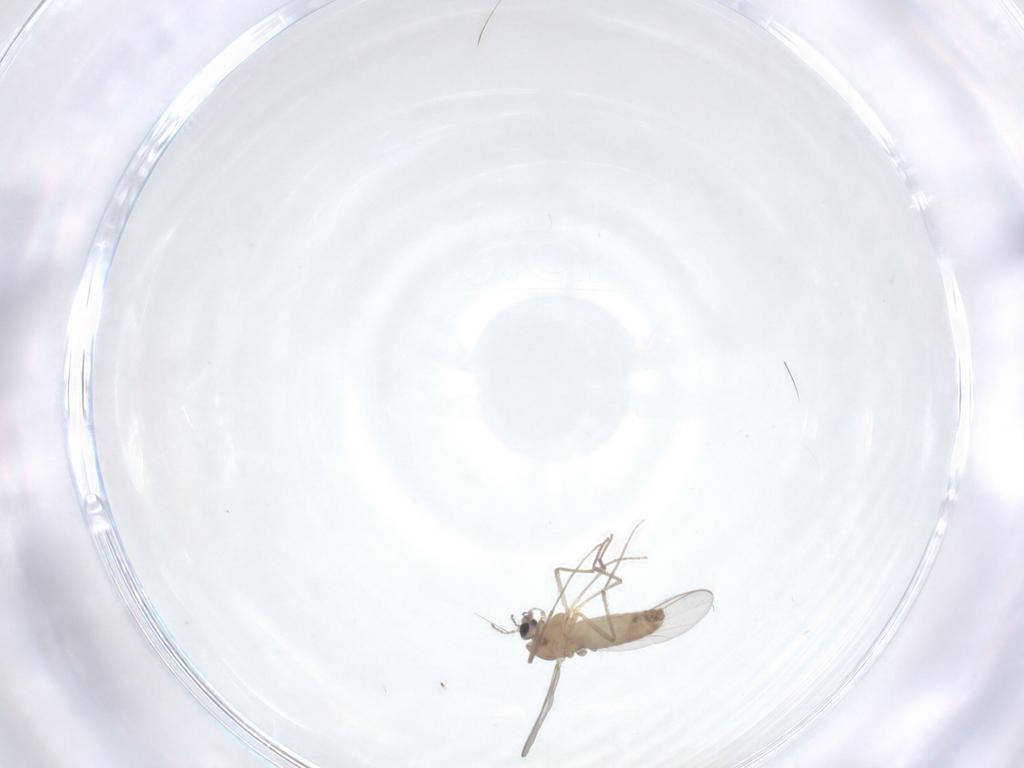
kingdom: Animalia
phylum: Arthropoda
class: Insecta
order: Diptera
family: Chironomidae
